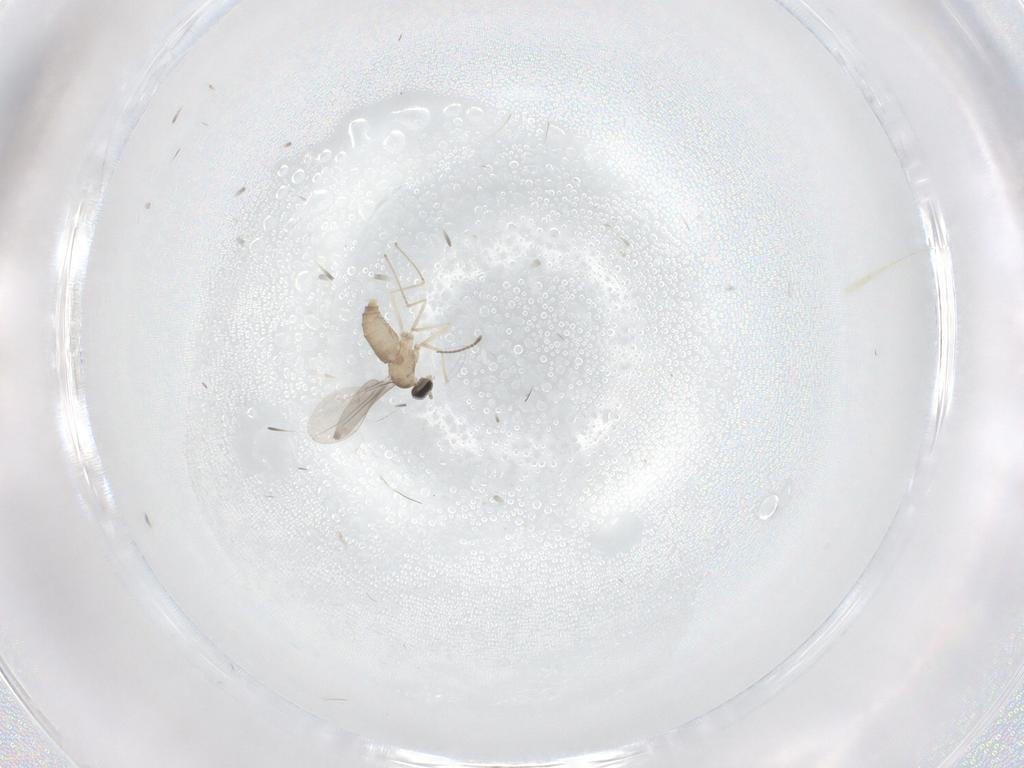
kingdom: Animalia
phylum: Arthropoda
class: Insecta
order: Diptera
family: Cecidomyiidae
